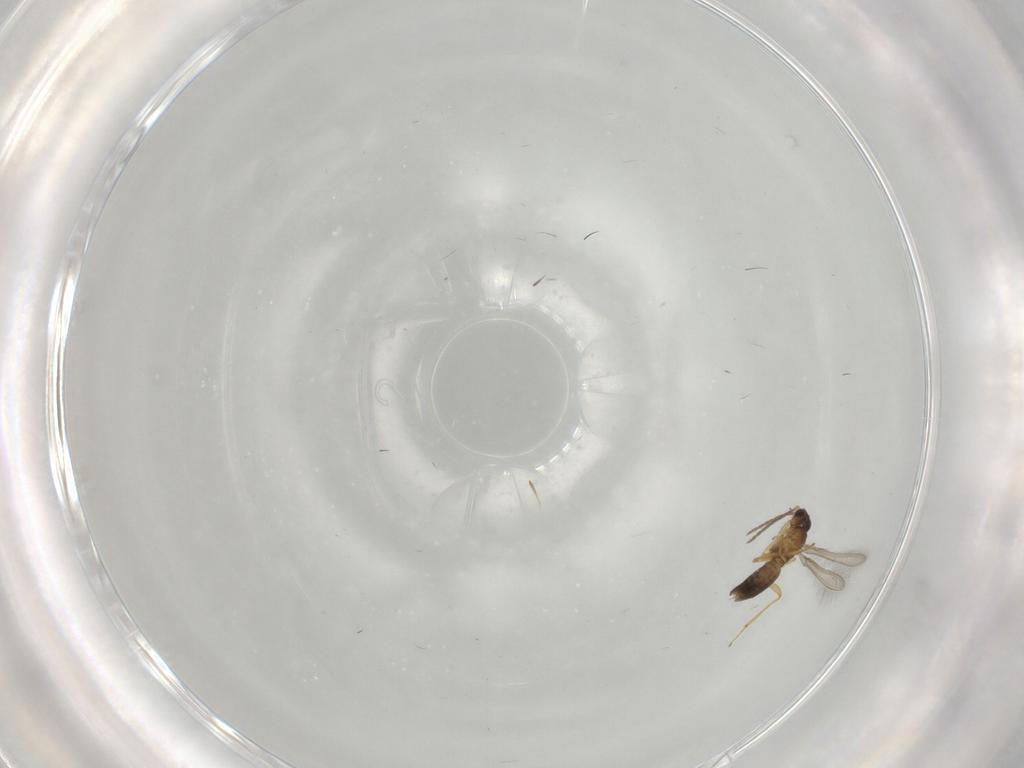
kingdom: Animalia
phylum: Arthropoda
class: Insecta
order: Hymenoptera
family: Mymaridae
